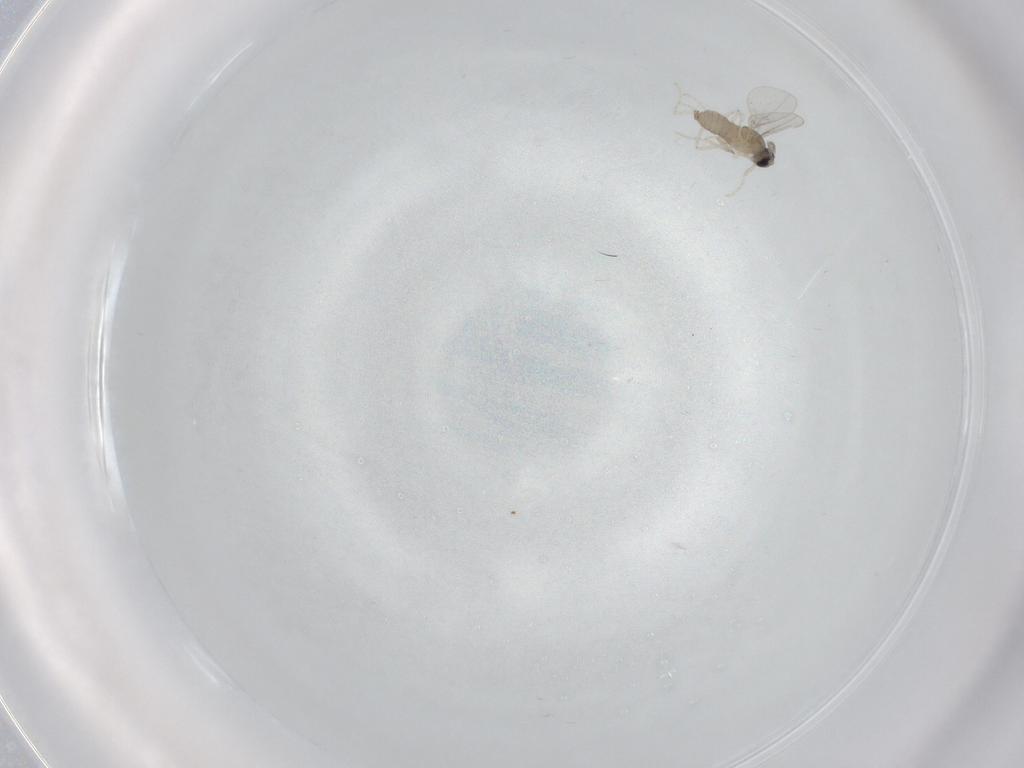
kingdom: Animalia
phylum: Arthropoda
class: Insecta
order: Diptera
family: Cecidomyiidae
